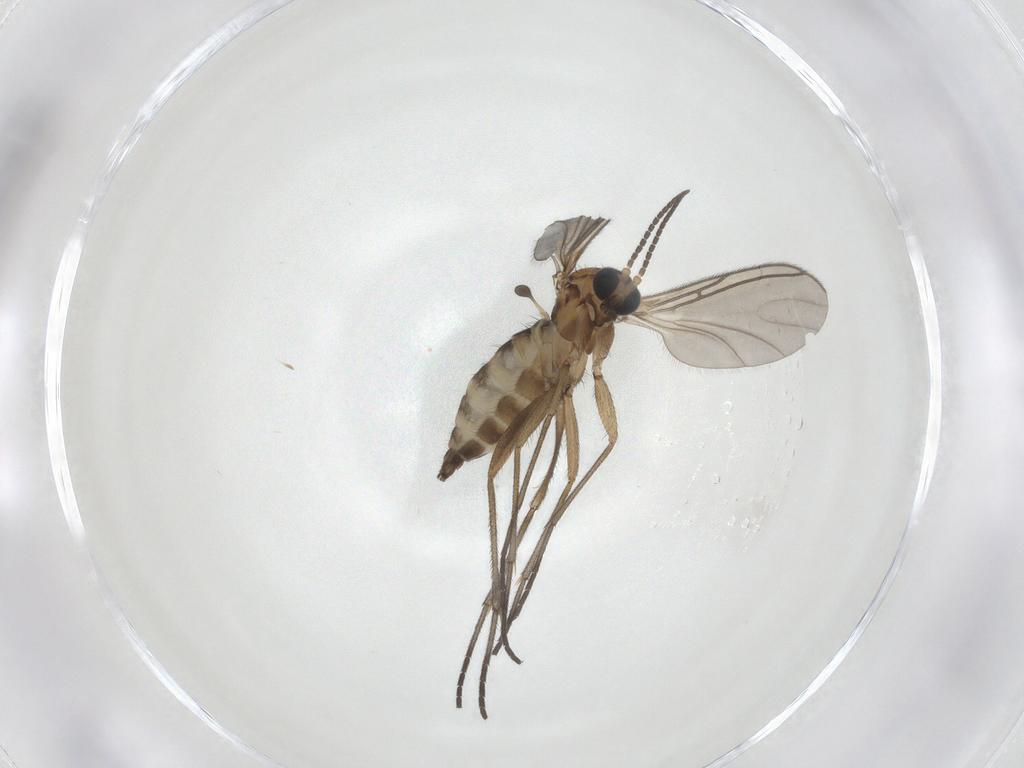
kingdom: Animalia
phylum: Arthropoda
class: Insecta
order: Diptera
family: Sciaridae
